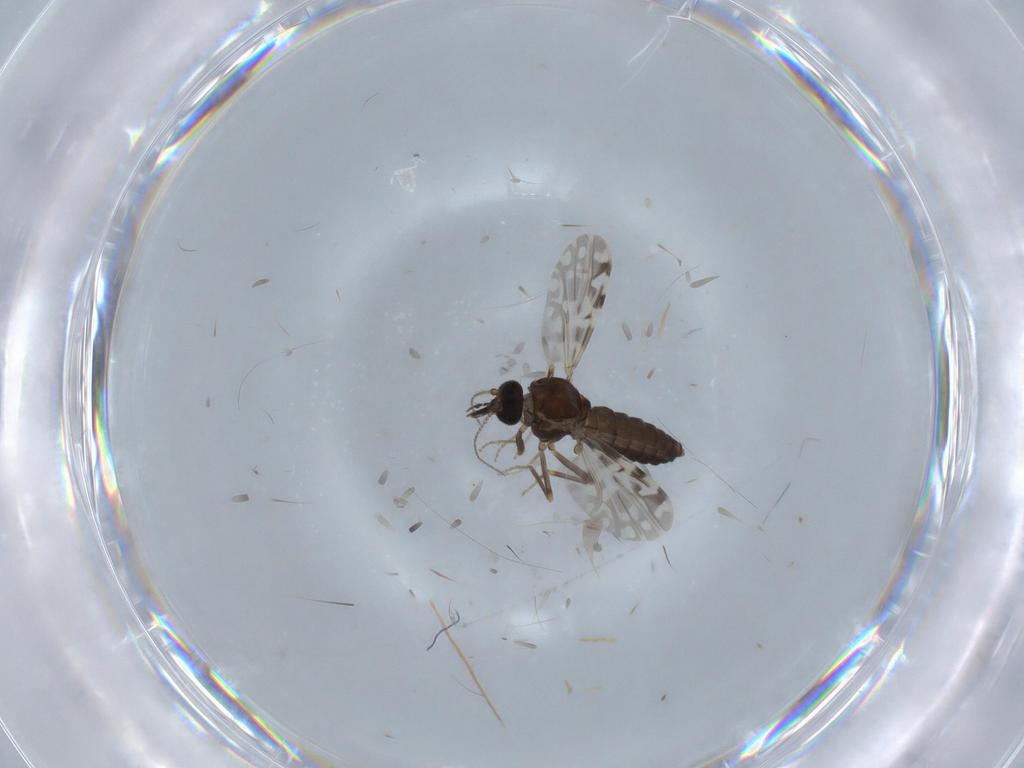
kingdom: Animalia
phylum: Arthropoda
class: Insecta
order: Diptera
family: Ceratopogonidae
